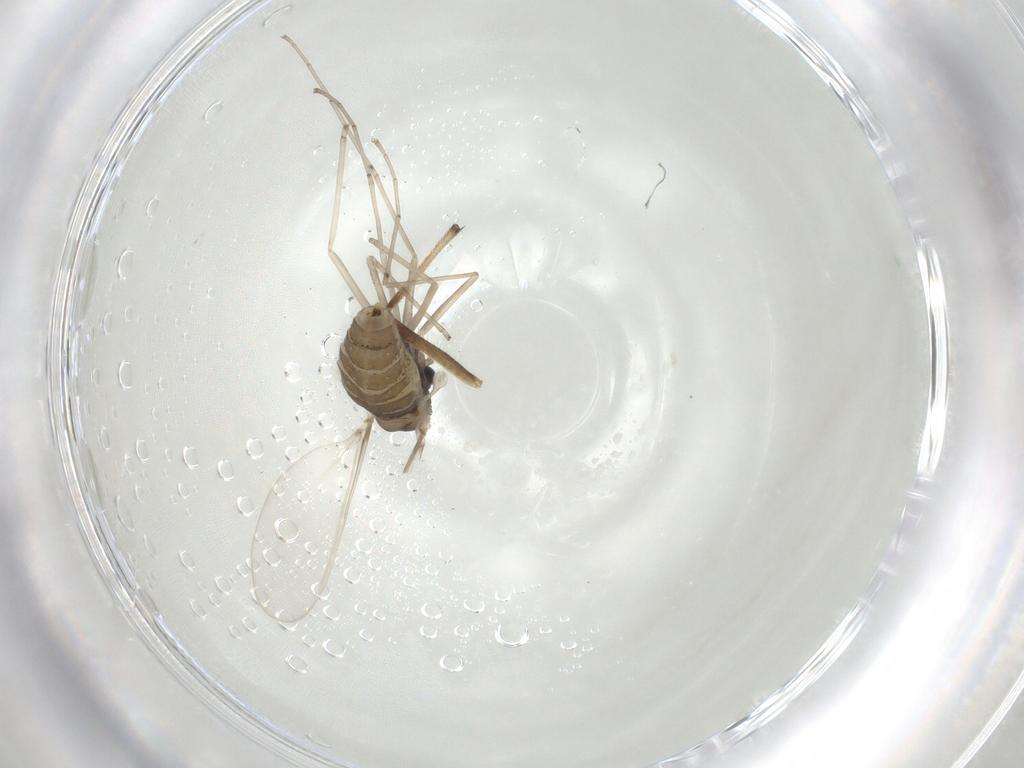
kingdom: Animalia
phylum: Arthropoda
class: Insecta
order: Diptera
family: Cecidomyiidae
